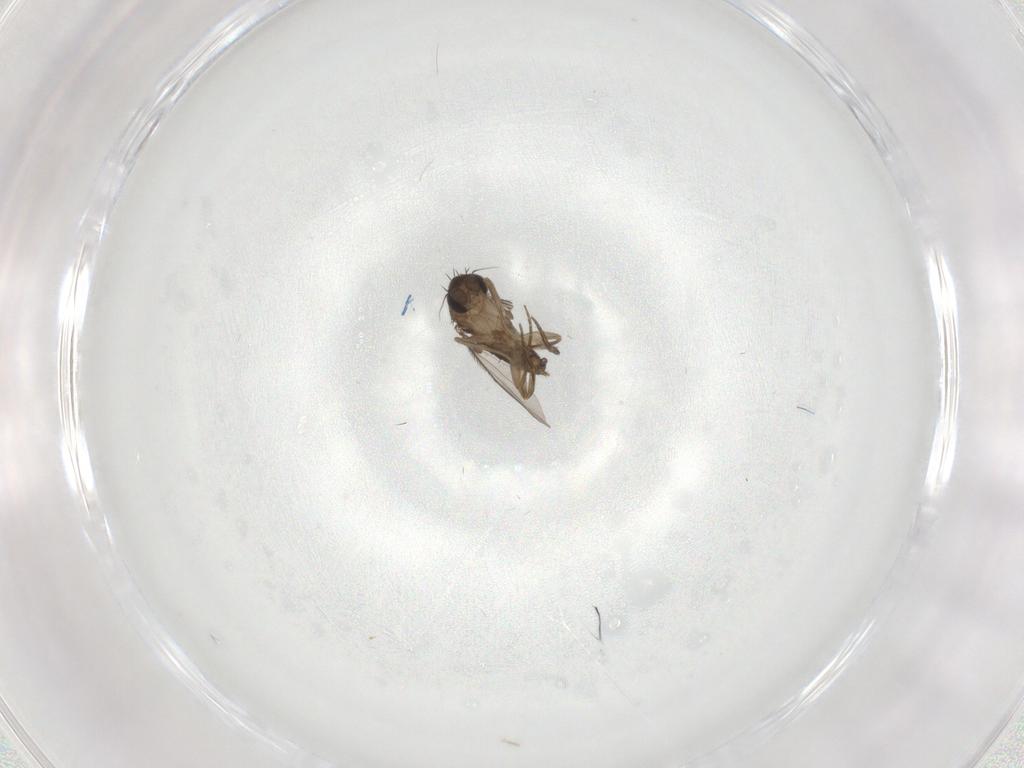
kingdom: Animalia
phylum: Arthropoda
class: Insecta
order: Diptera
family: Phoridae
